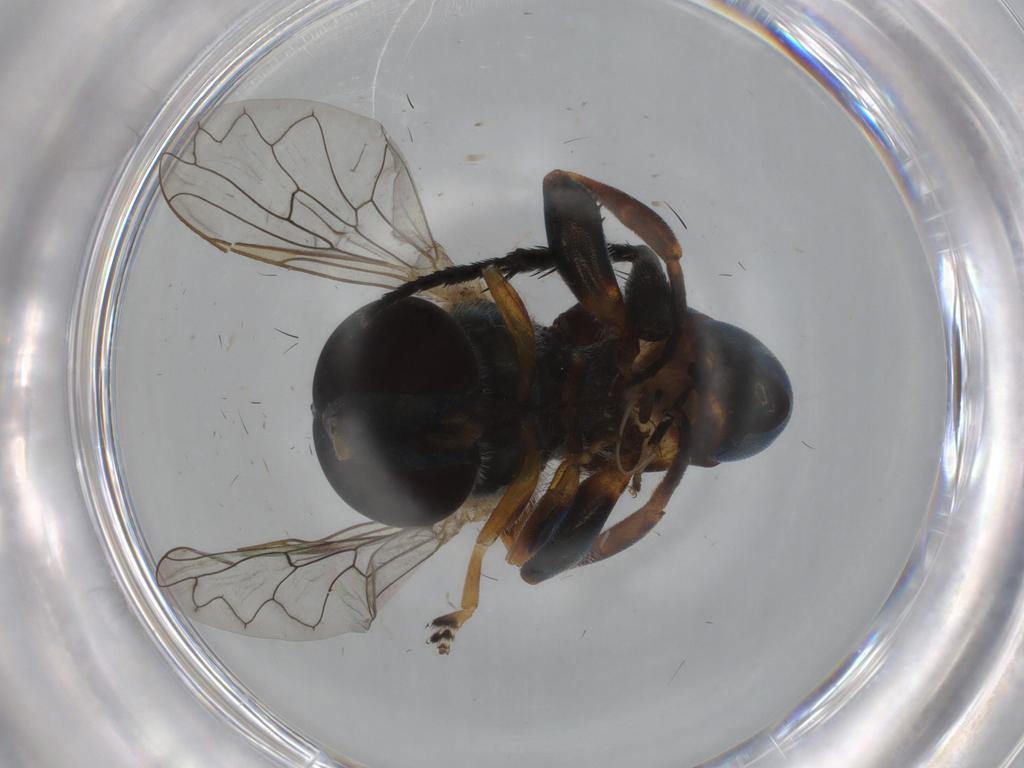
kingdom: Animalia
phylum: Arthropoda
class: Insecta
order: Diptera
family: Syrphidae
